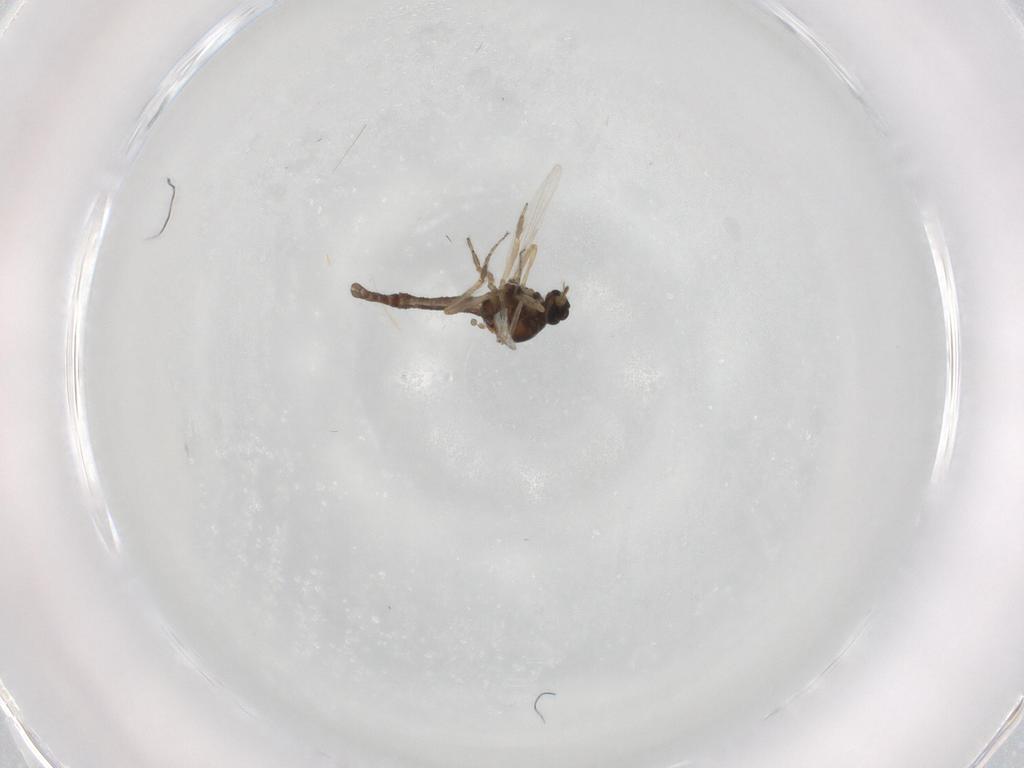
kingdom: Animalia
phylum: Arthropoda
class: Insecta
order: Diptera
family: Ceratopogonidae
